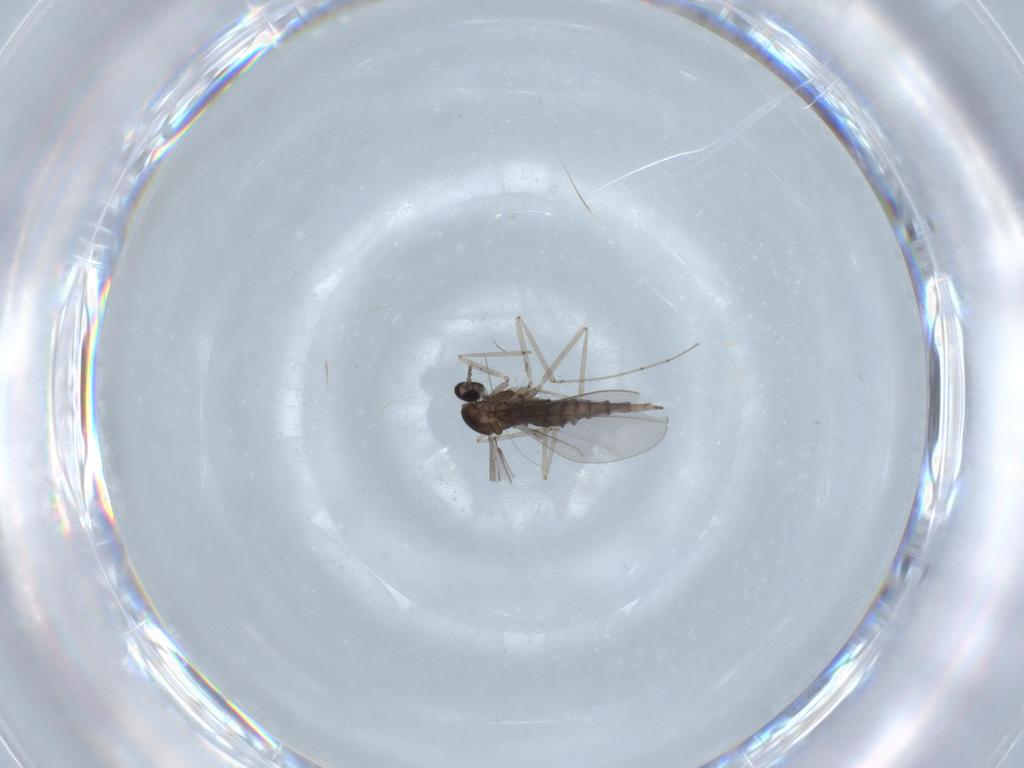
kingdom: Animalia
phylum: Arthropoda
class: Insecta
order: Diptera
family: Cecidomyiidae
